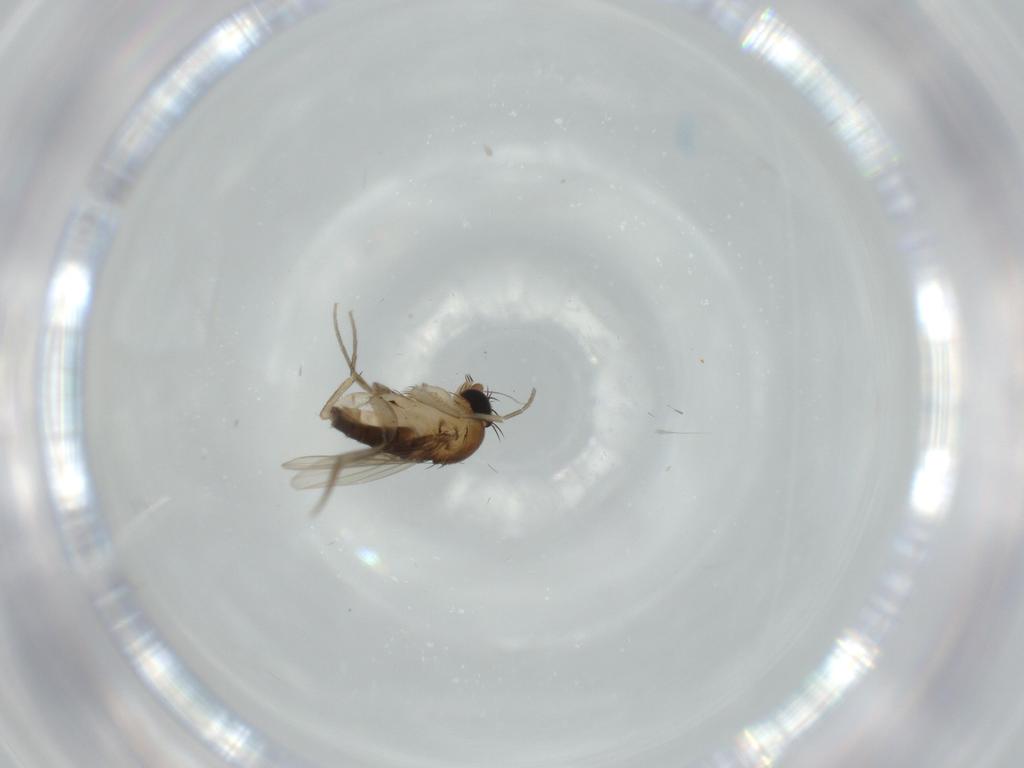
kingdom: Animalia
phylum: Arthropoda
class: Insecta
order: Diptera
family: Phoridae
